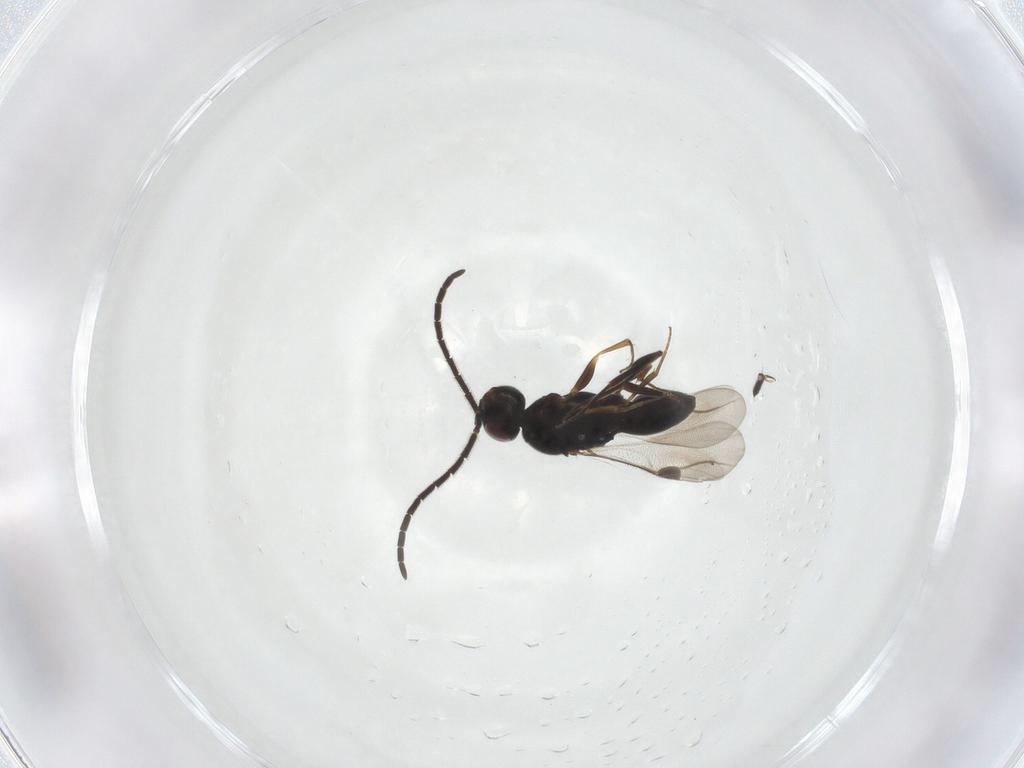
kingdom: Animalia
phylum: Arthropoda
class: Insecta
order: Hymenoptera
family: Megaspilidae
